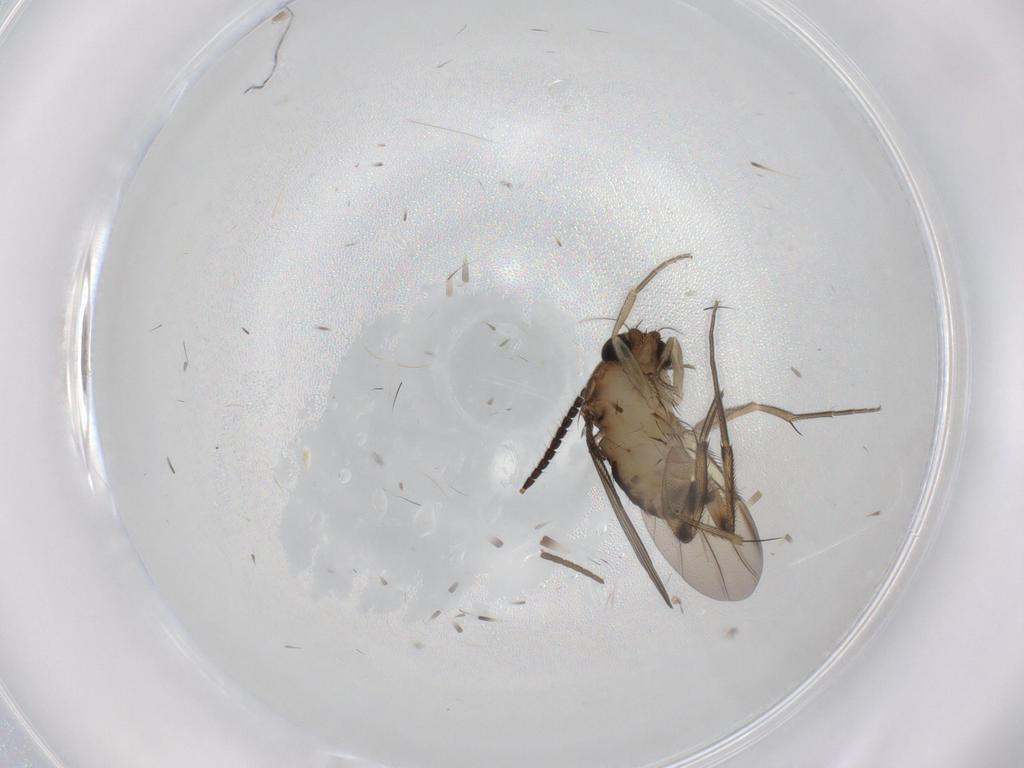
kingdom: Animalia
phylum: Arthropoda
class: Insecta
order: Diptera
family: Phoridae
